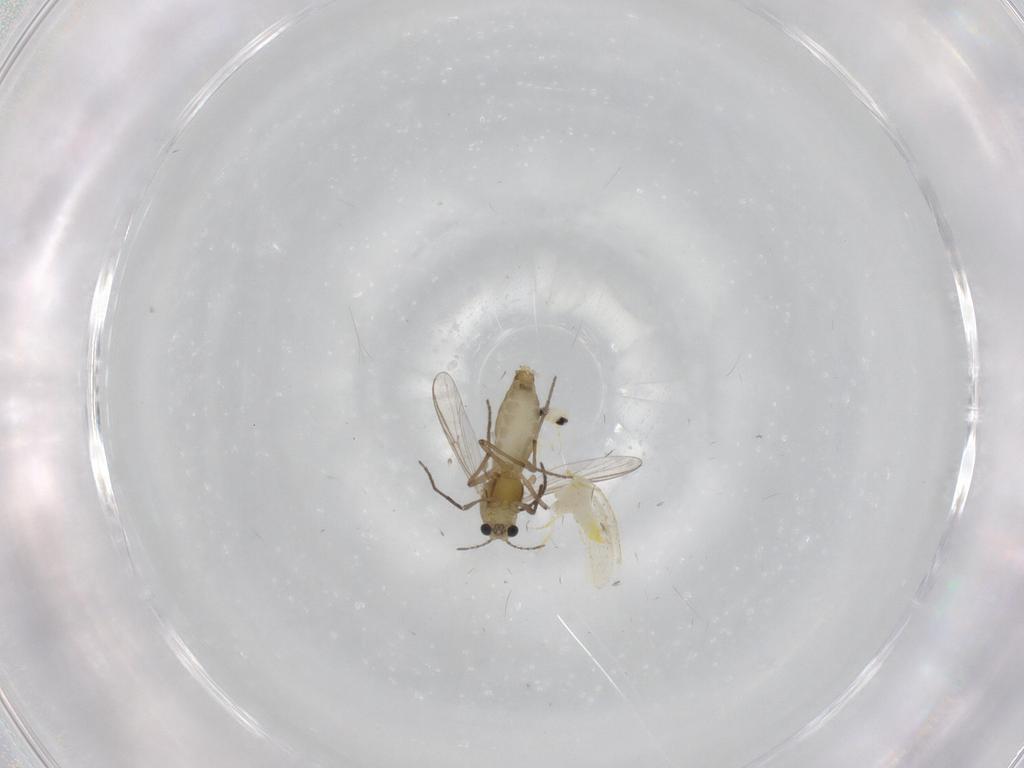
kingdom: Animalia
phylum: Arthropoda
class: Insecta
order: Diptera
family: Chironomidae
